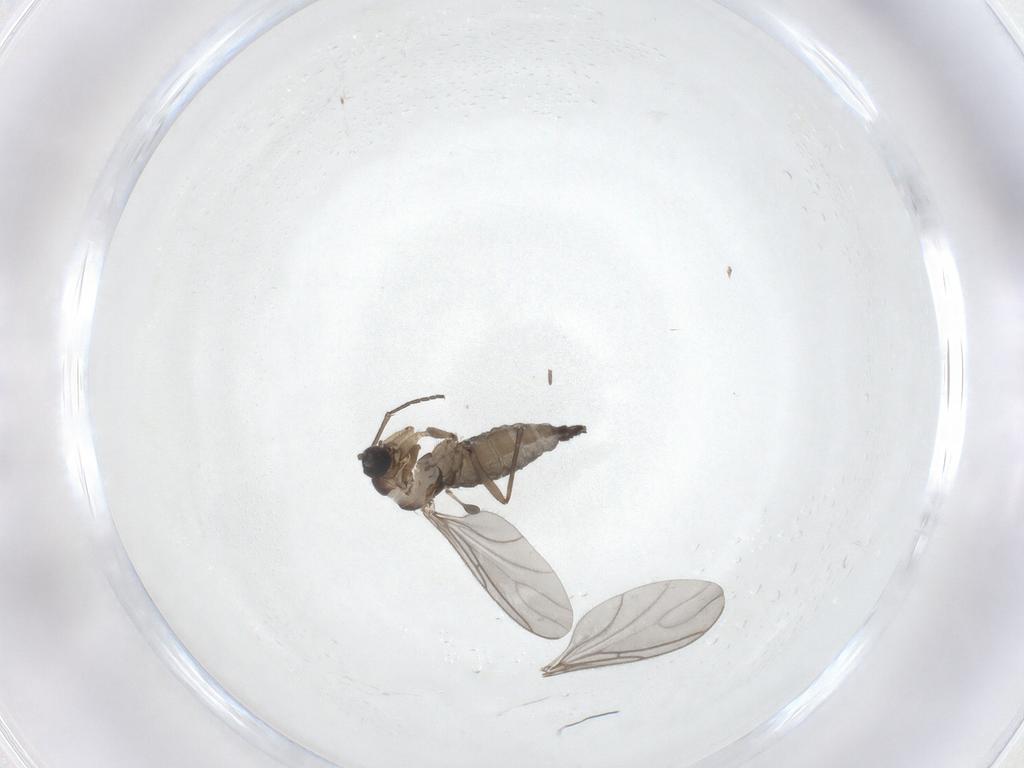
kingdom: Animalia
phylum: Arthropoda
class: Insecta
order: Diptera
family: Sciaridae
